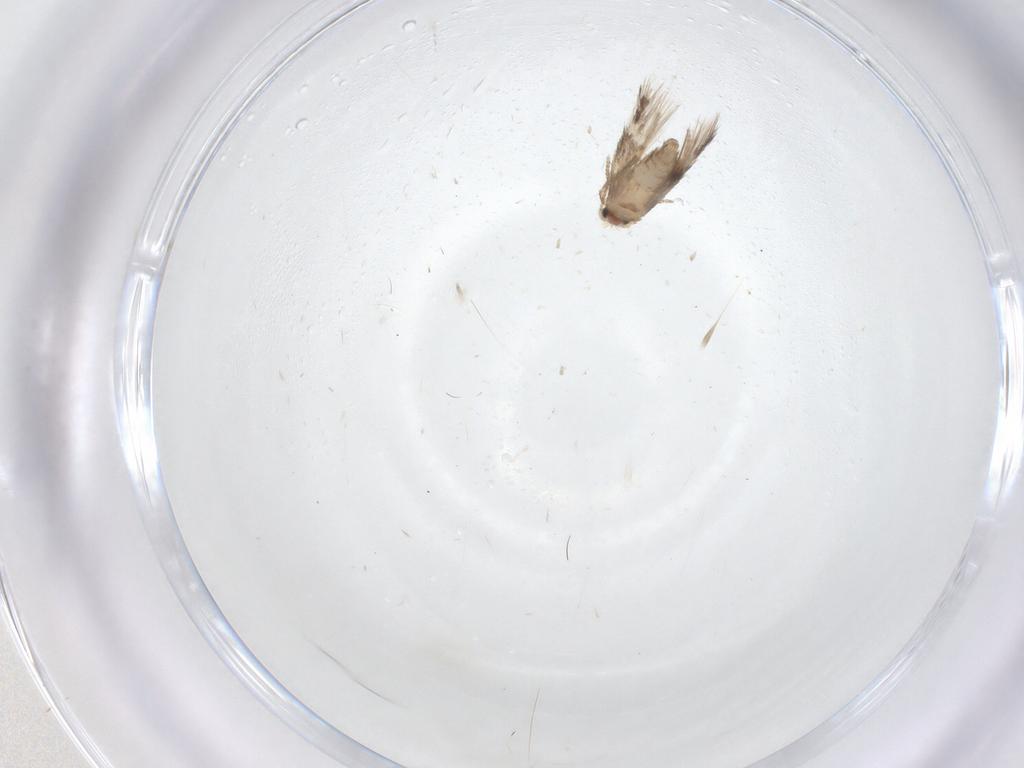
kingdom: Animalia
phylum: Arthropoda
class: Insecta
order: Lepidoptera
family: Nepticulidae
